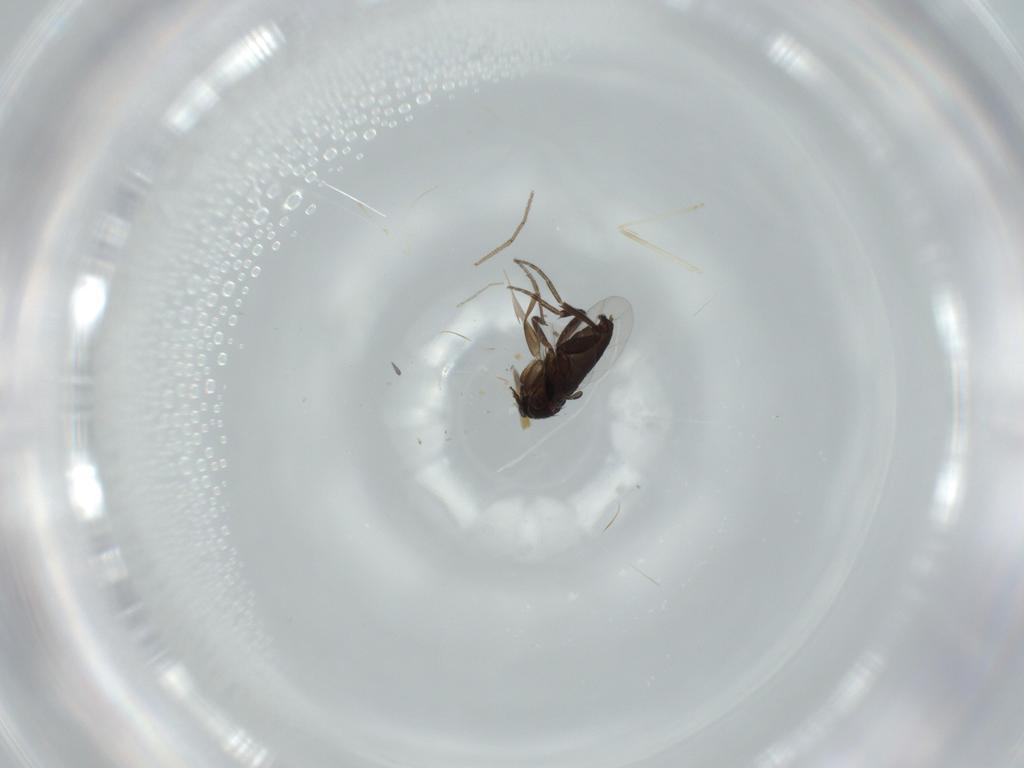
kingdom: Animalia
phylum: Arthropoda
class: Insecta
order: Diptera
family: Chironomidae
